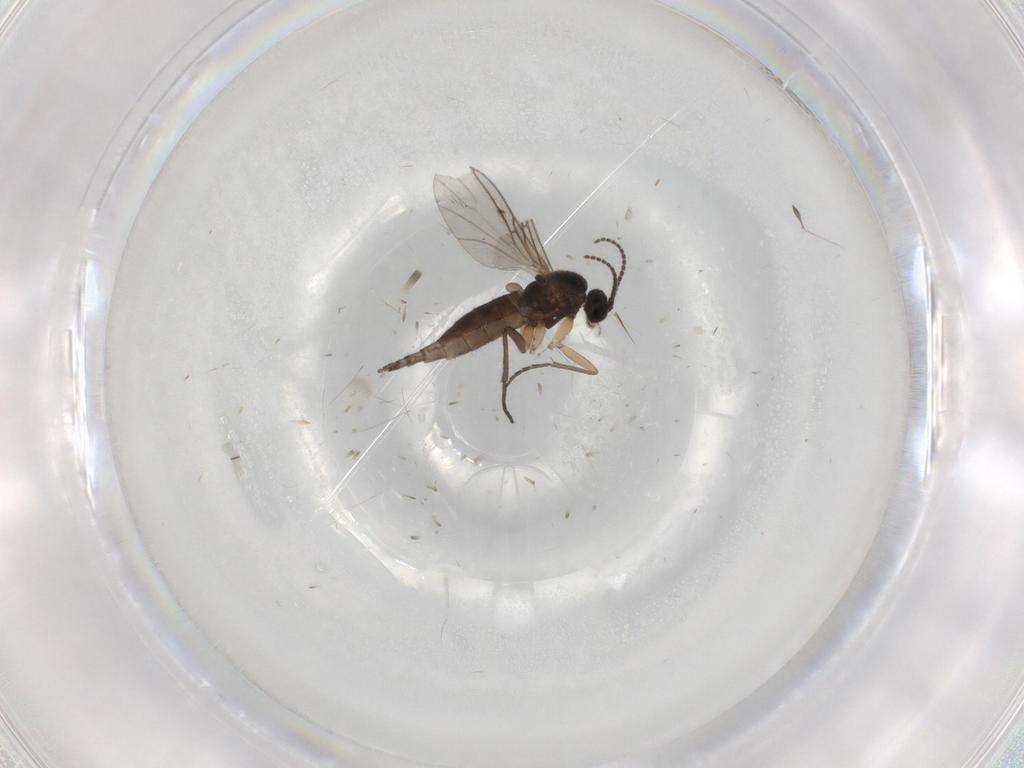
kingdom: Animalia
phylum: Arthropoda
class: Insecta
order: Diptera
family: Sciaridae
